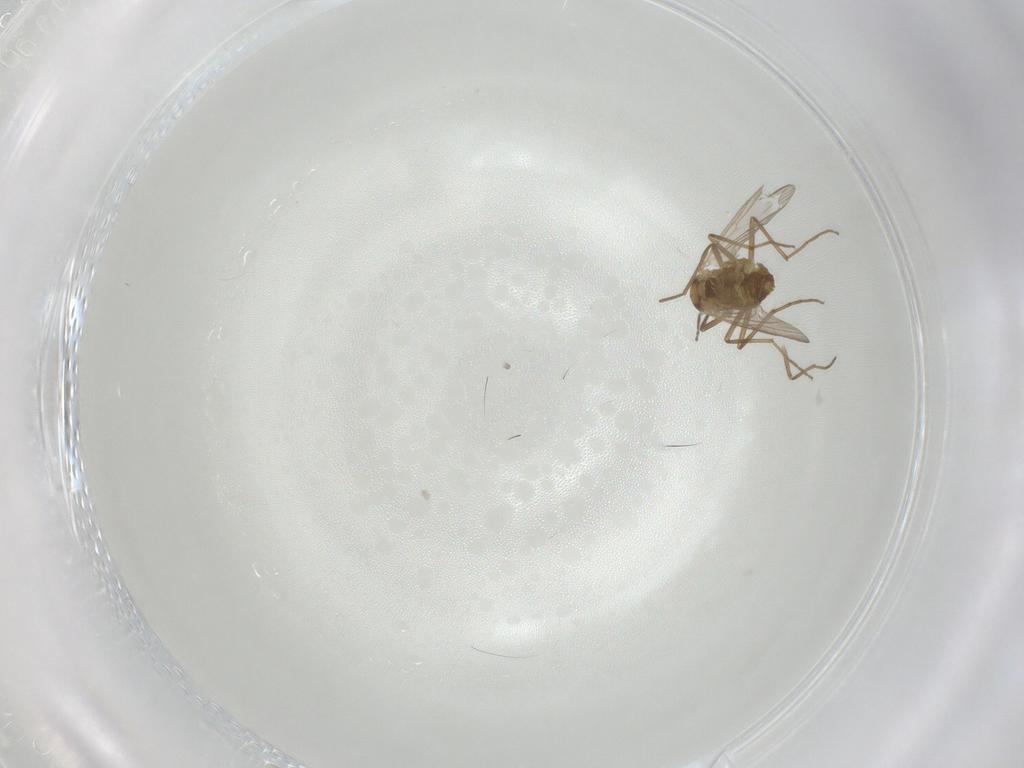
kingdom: Animalia
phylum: Arthropoda
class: Insecta
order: Diptera
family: Chironomidae
